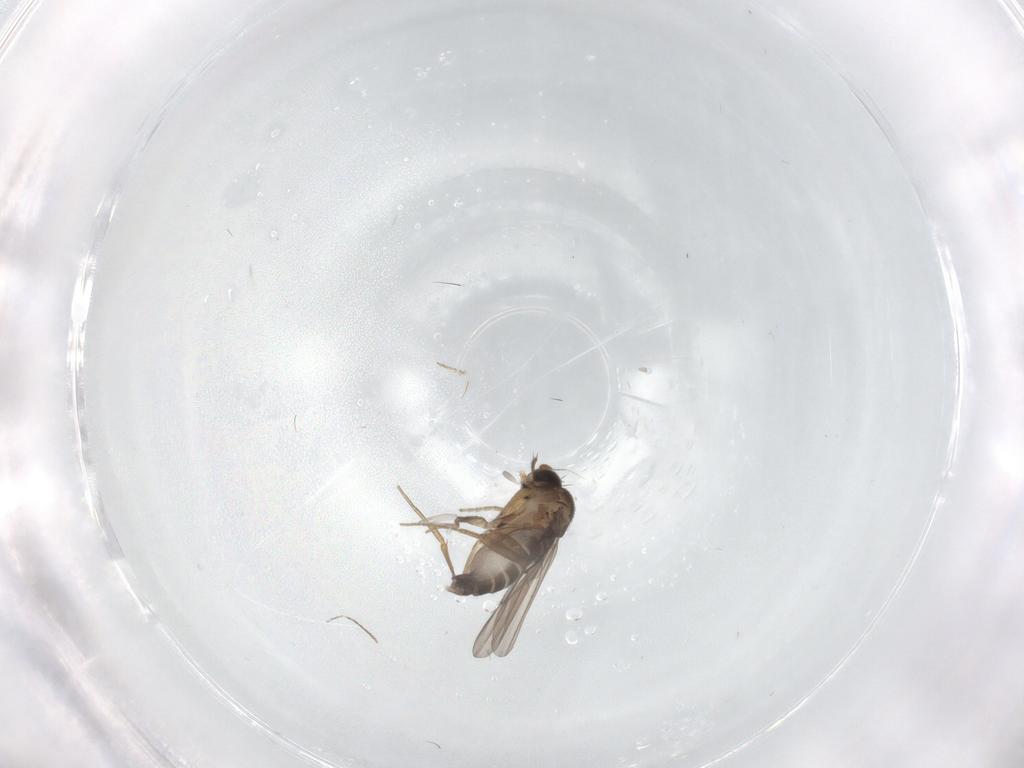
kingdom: Animalia
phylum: Arthropoda
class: Insecta
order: Diptera
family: Phoridae
